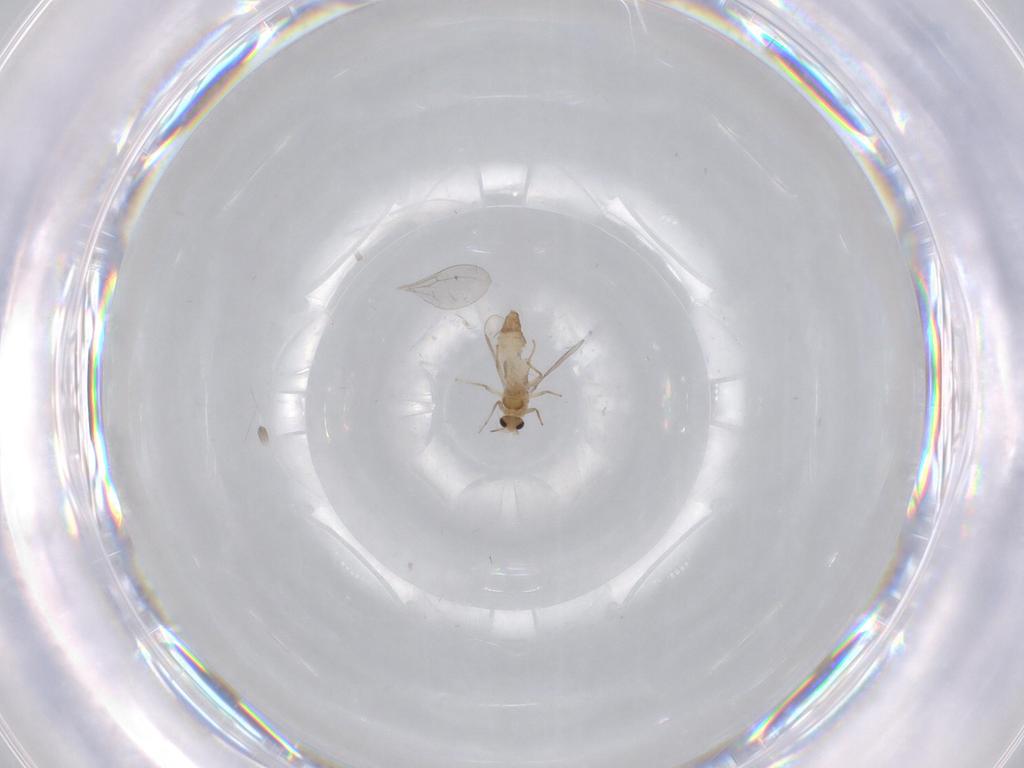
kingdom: Animalia
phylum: Arthropoda
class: Insecta
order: Diptera
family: Chironomidae
